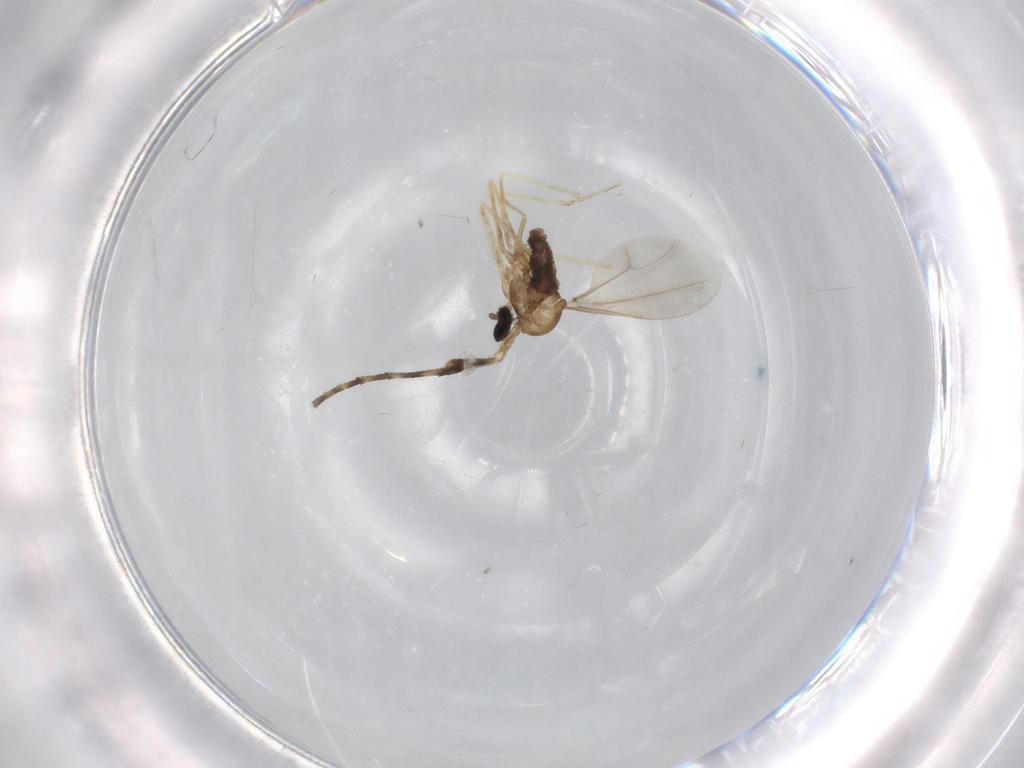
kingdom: Animalia
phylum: Arthropoda
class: Insecta
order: Diptera
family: Cecidomyiidae
